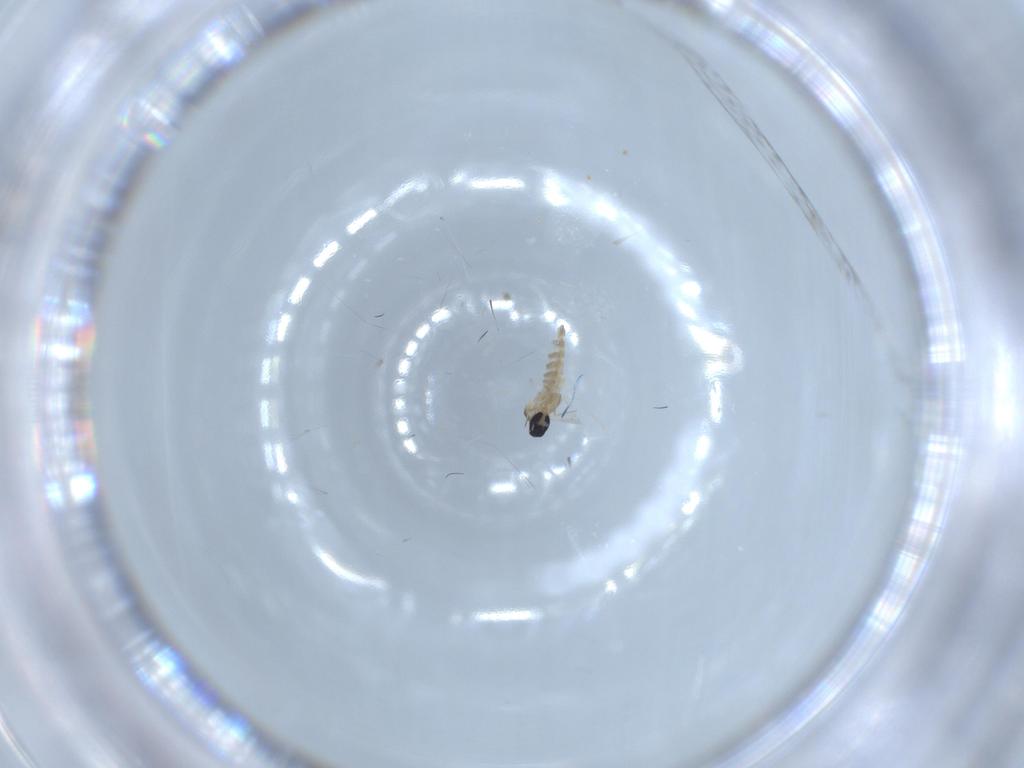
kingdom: Animalia
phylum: Arthropoda
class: Insecta
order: Diptera
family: Cecidomyiidae
